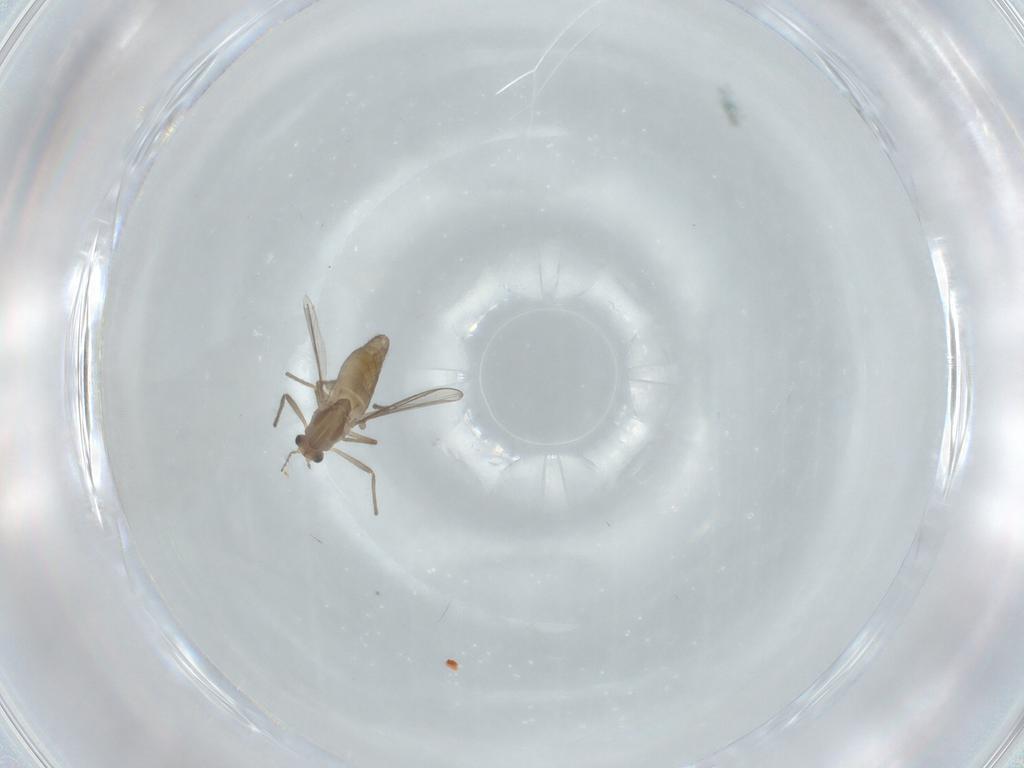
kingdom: Animalia
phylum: Arthropoda
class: Insecta
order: Diptera
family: Chironomidae
